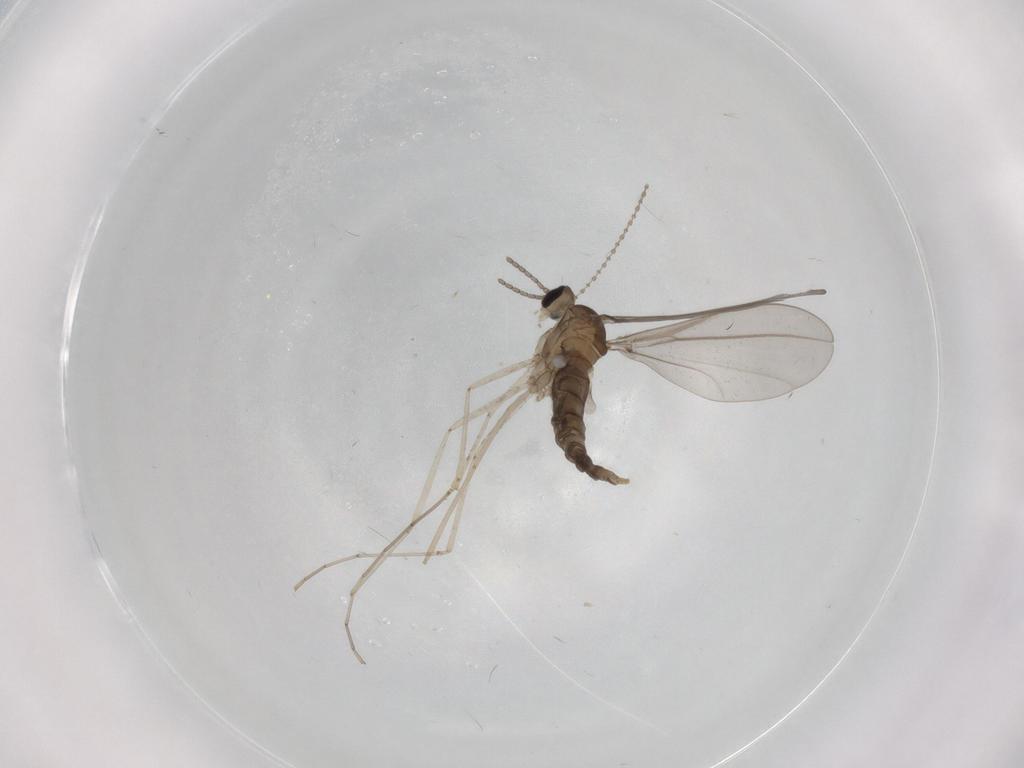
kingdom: Animalia
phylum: Arthropoda
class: Insecta
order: Diptera
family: Cecidomyiidae
